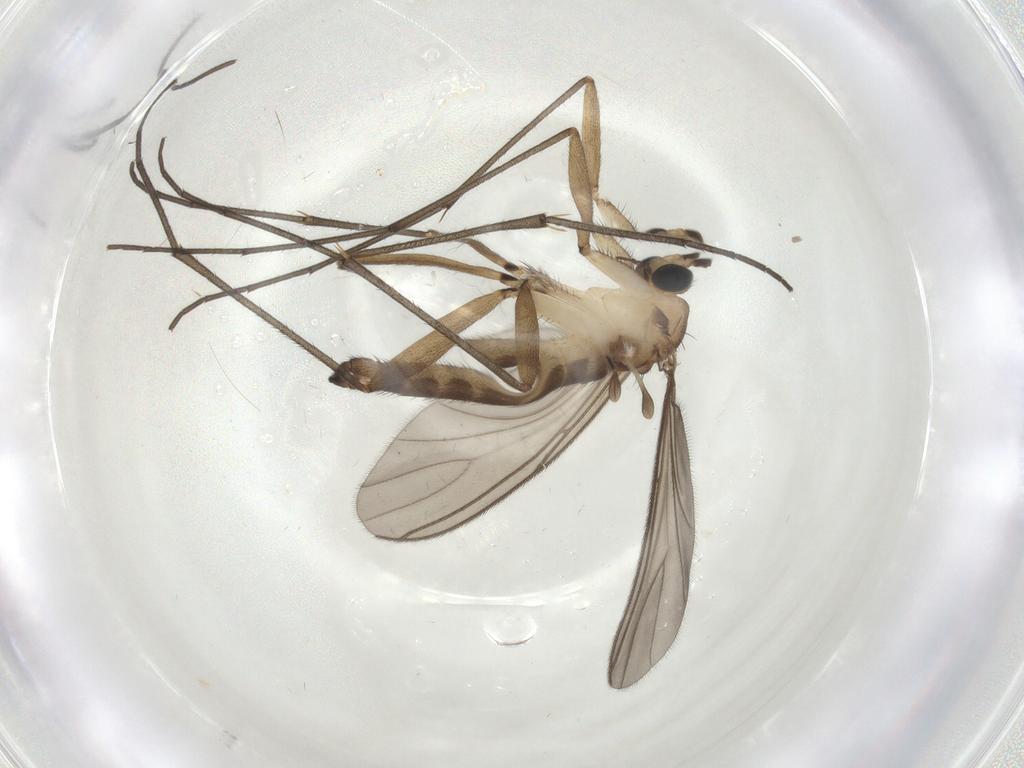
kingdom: Animalia
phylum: Arthropoda
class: Insecta
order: Diptera
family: Sciaridae
